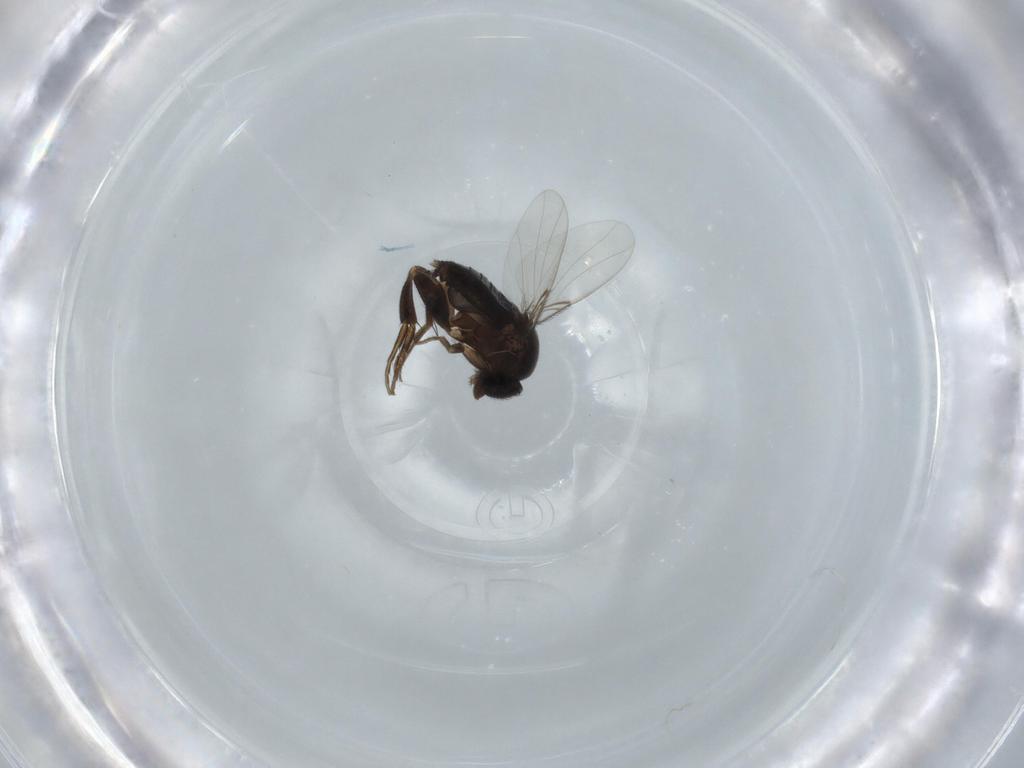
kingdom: Animalia
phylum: Arthropoda
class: Insecta
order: Diptera
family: Phoridae
